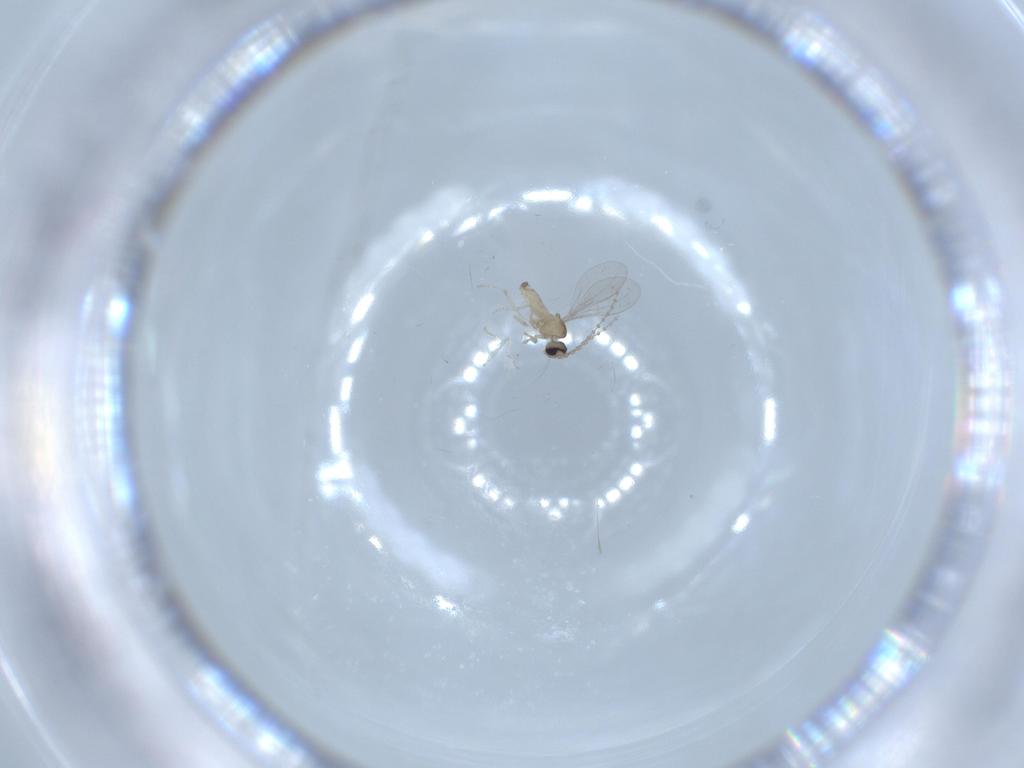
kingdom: Animalia
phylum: Arthropoda
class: Insecta
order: Diptera
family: Cecidomyiidae
